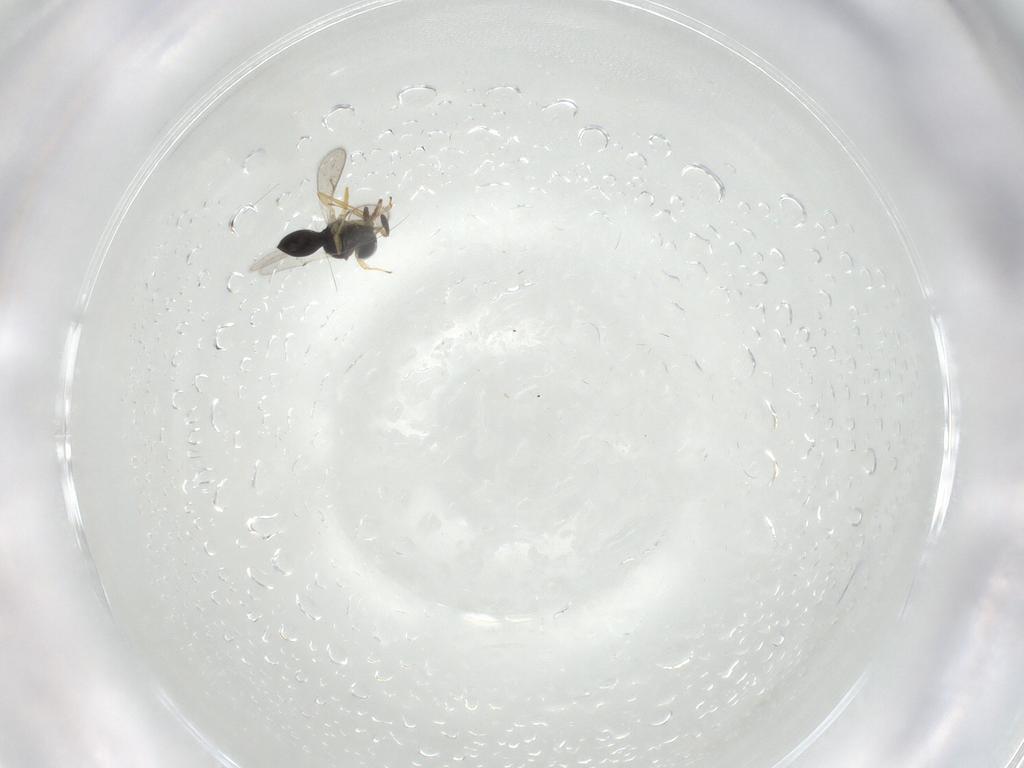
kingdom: Animalia
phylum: Arthropoda
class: Insecta
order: Hymenoptera
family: Scelionidae
